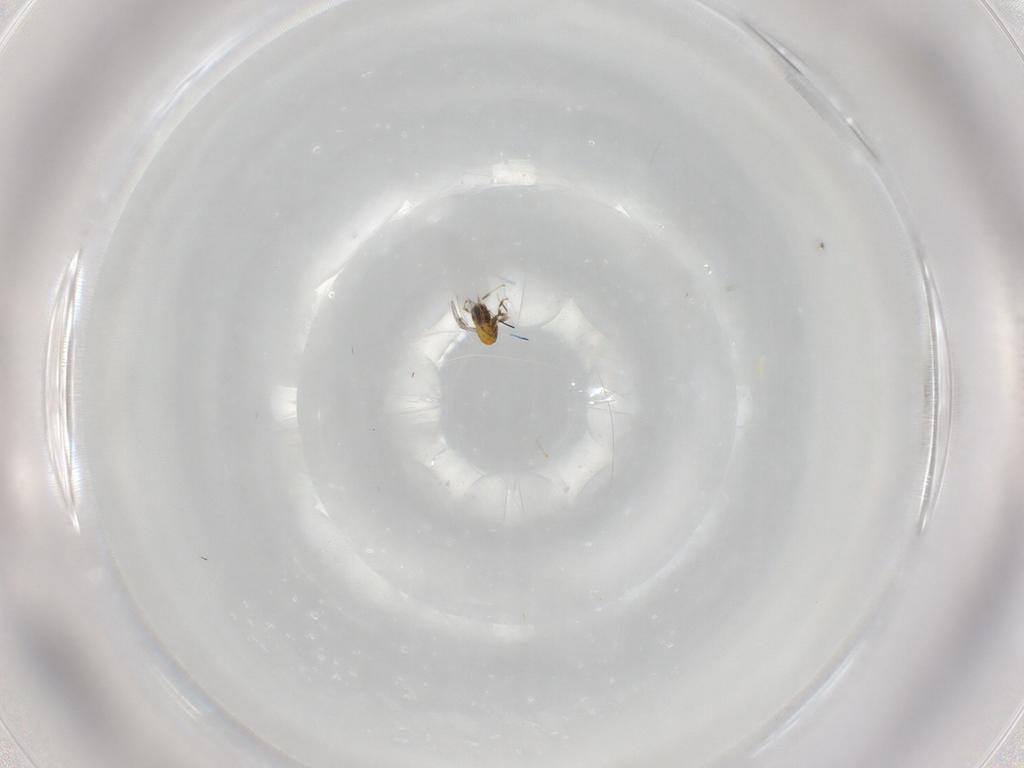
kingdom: Animalia
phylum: Arthropoda
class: Insecta
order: Hymenoptera
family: Trichogrammatidae
